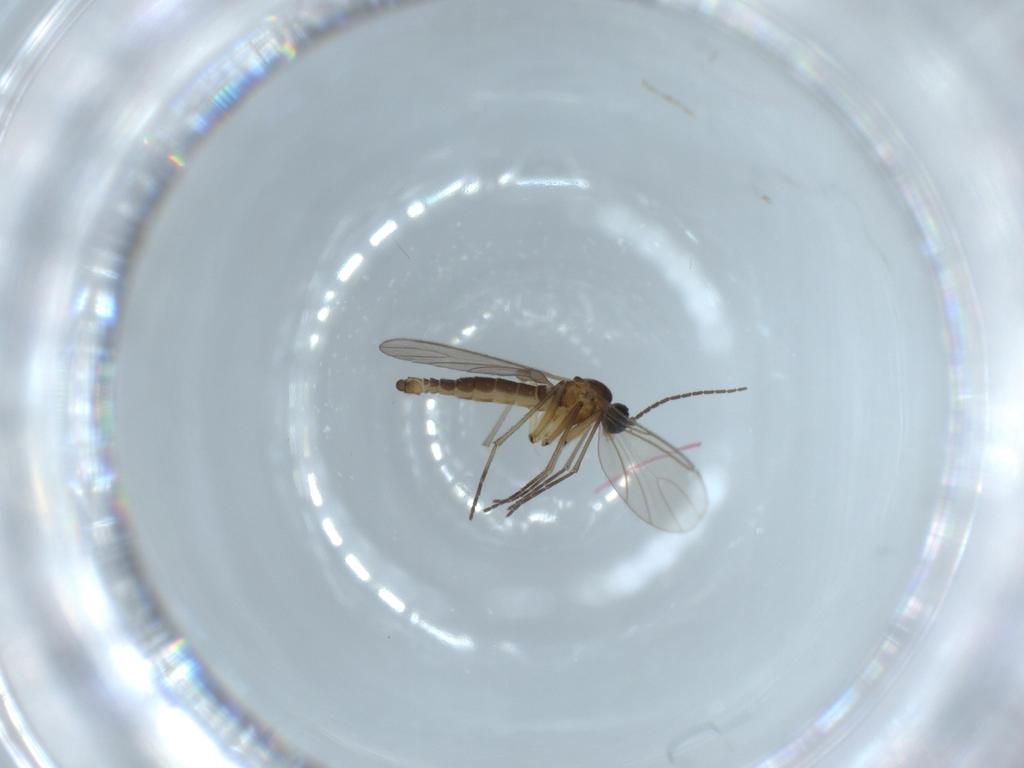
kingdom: Animalia
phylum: Arthropoda
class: Insecta
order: Diptera
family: Sciaridae
